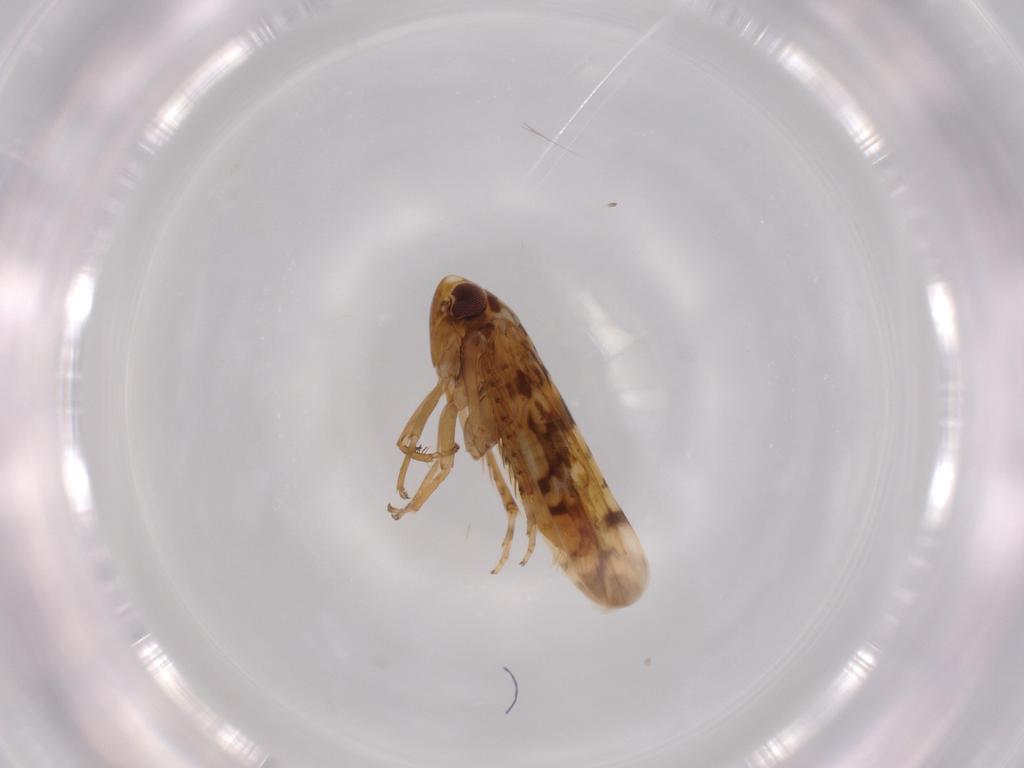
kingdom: Animalia
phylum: Arthropoda
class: Insecta
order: Hemiptera
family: Cicadellidae
